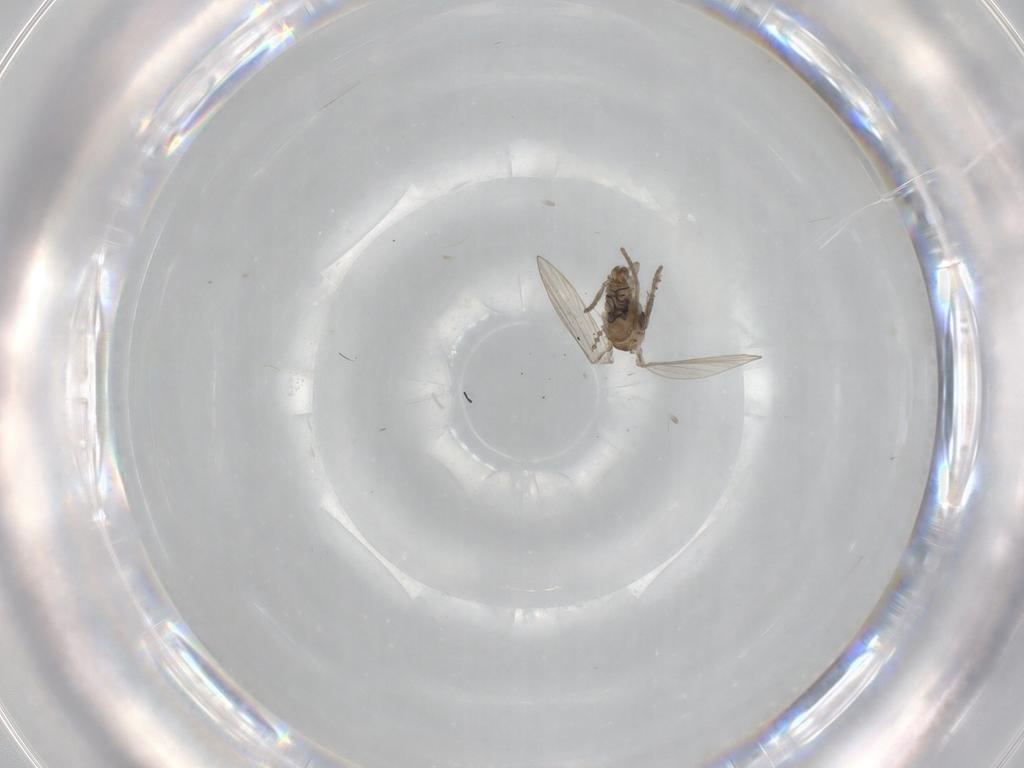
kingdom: Animalia
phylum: Arthropoda
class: Insecta
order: Diptera
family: Psychodidae
